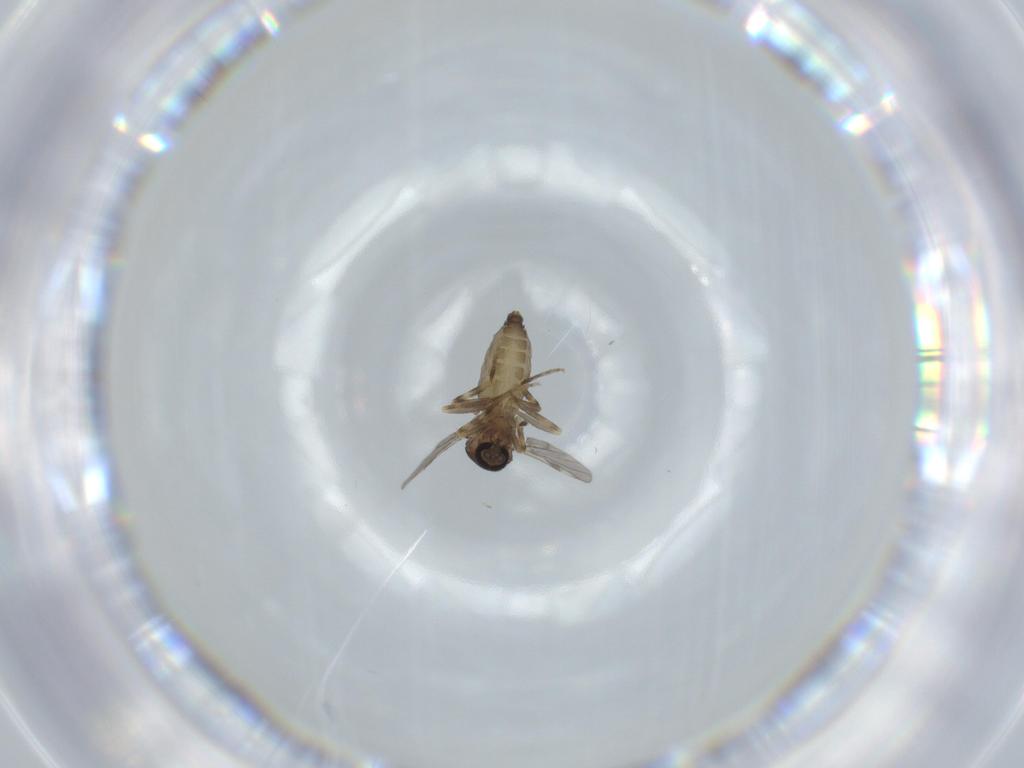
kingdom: Animalia
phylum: Arthropoda
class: Insecta
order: Diptera
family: Ceratopogonidae
